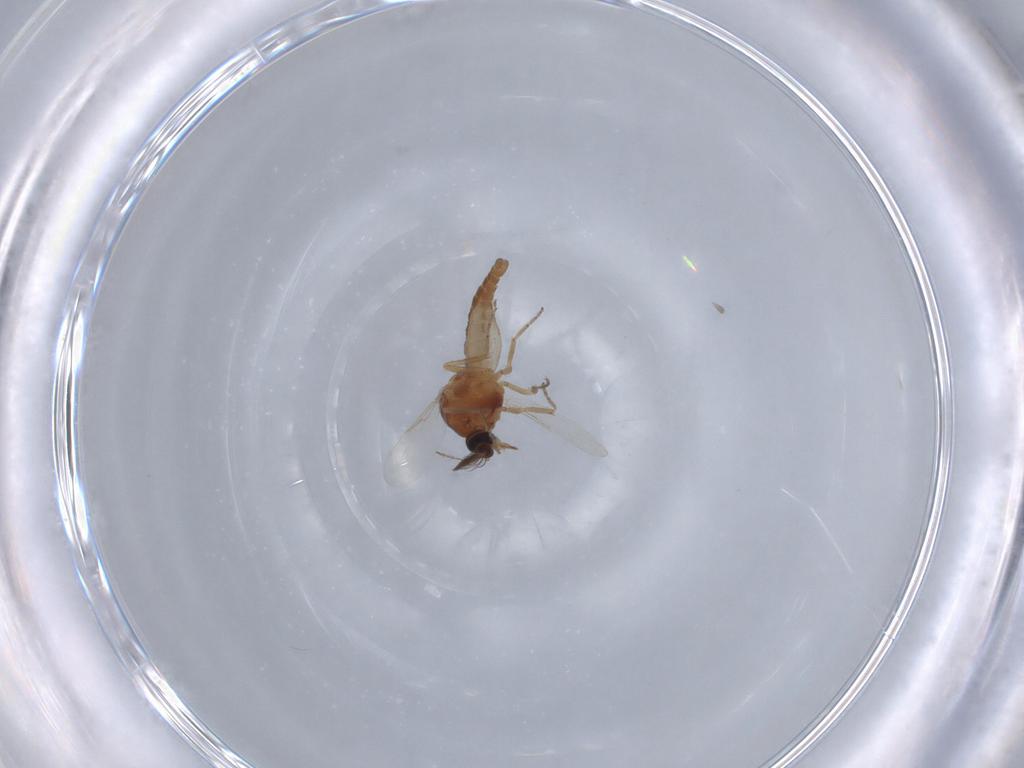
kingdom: Animalia
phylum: Arthropoda
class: Insecta
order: Diptera
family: Ceratopogonidae
